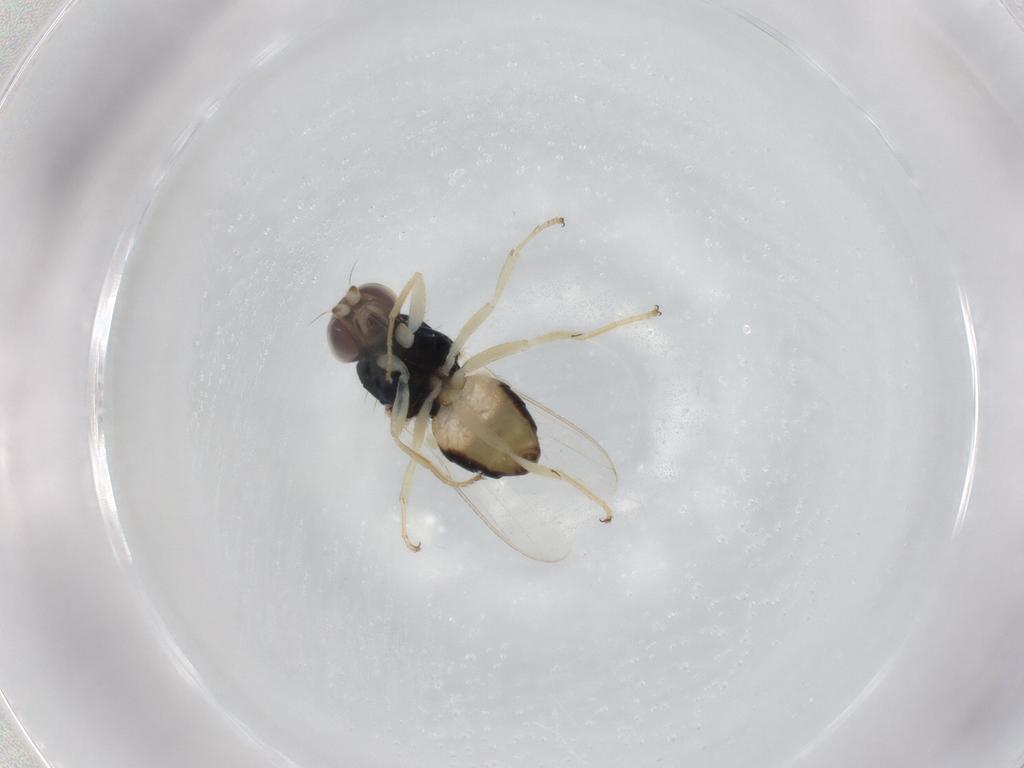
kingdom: Animalia
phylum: Arthropoda
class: Insecta
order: Diptera
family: Chloropidae
